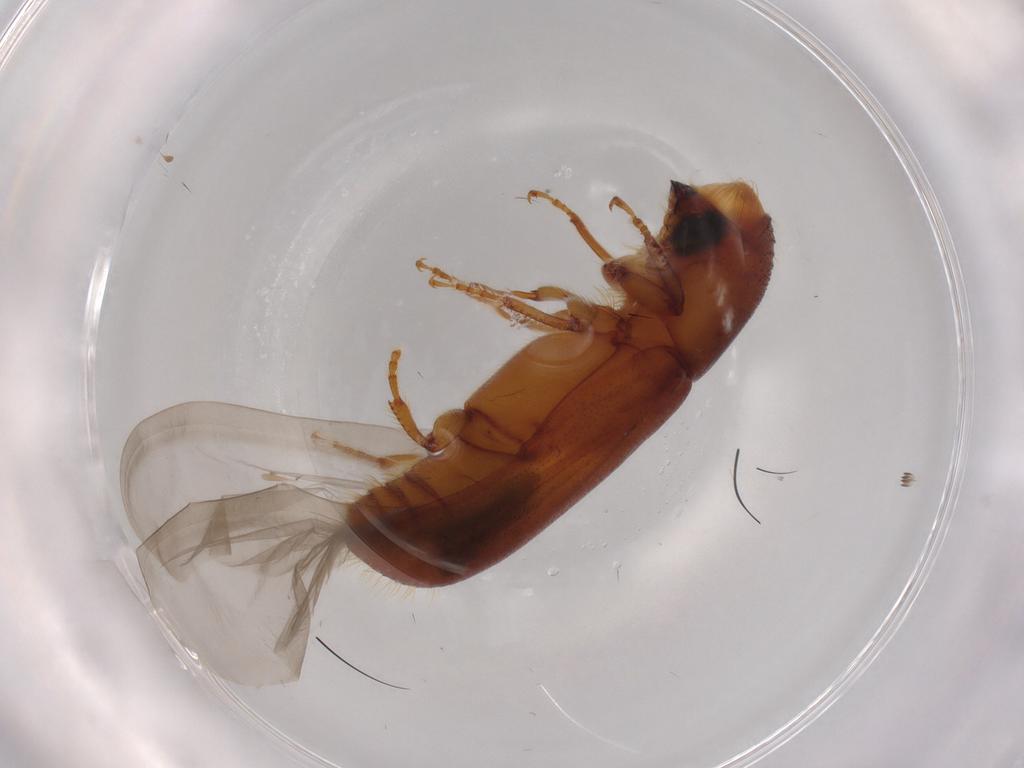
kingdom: Animalia
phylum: Arthropoda
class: Insecta
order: Coleoptera
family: Curculionidae
